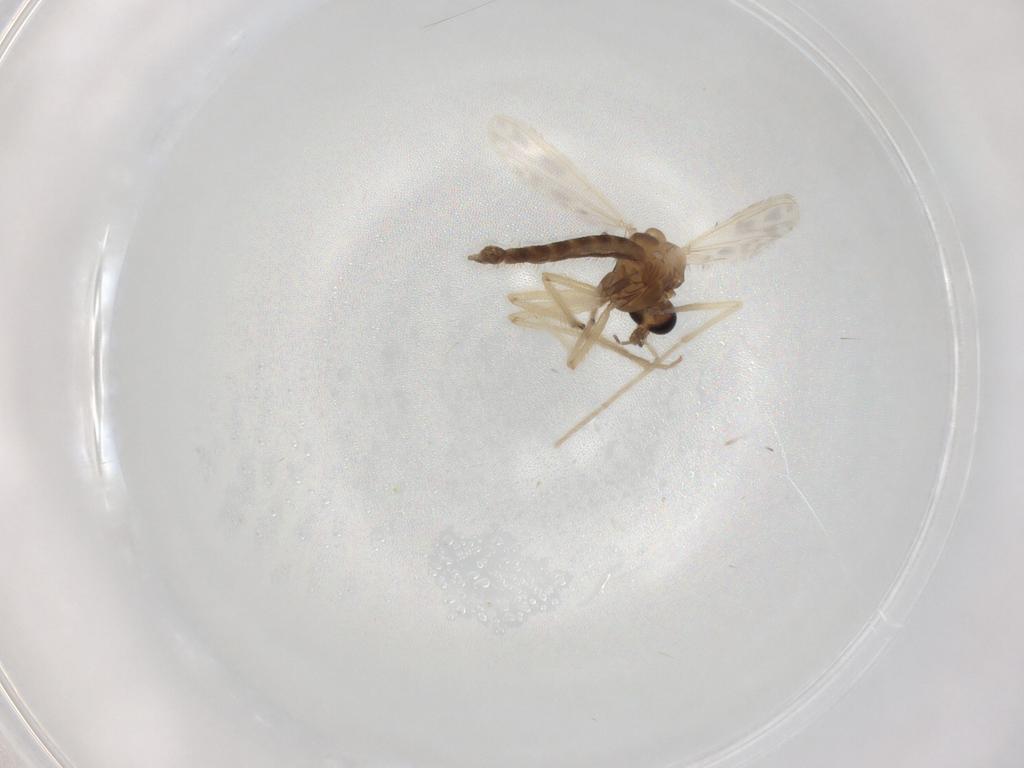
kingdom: Animalia
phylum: Arthropoda
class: Insecta
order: Diptera
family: Chironomidae
